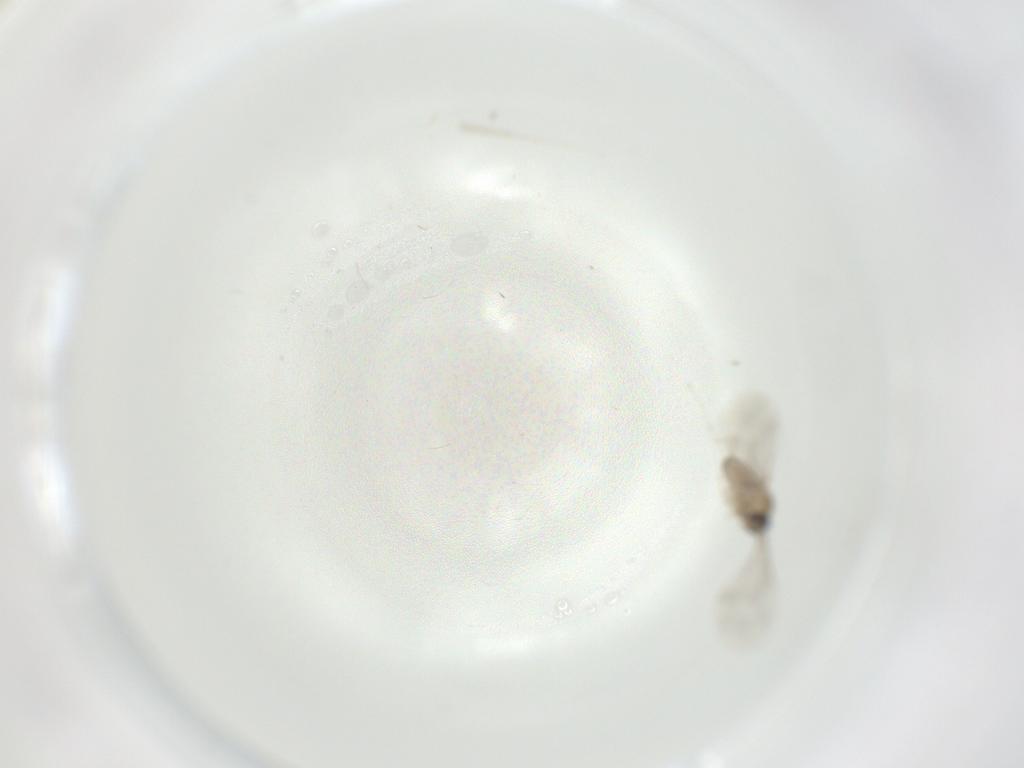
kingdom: Animalia
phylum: Arthropoda
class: Insecta
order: Diptera
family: Cecidomyiidae
